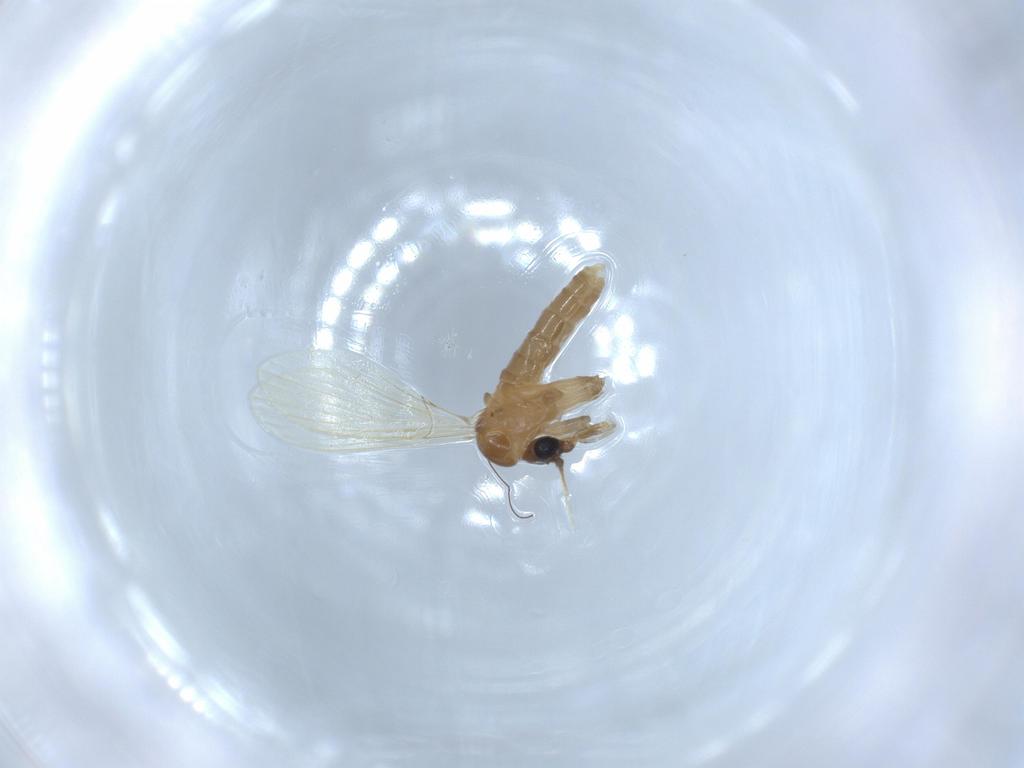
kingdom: Animalia
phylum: Arthropoda
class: Insecta
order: Diptera
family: Psychodidae
